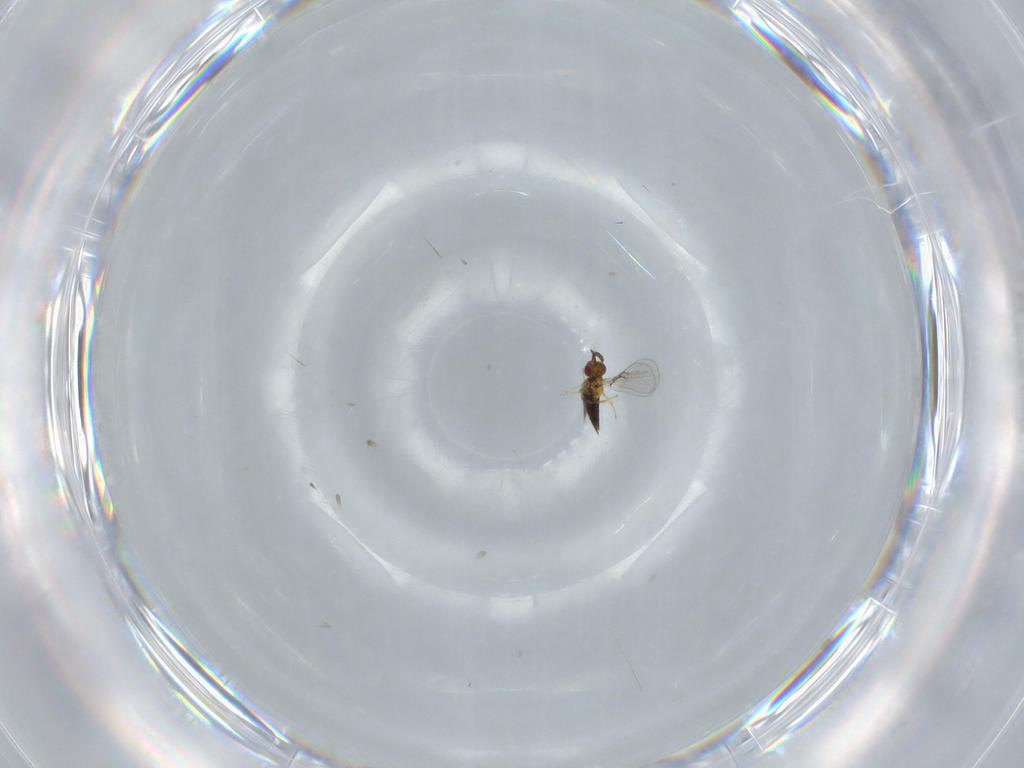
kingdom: Animalia
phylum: Arthropoda
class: Insecta
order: Hymenoptera
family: Trichogrammatidae
